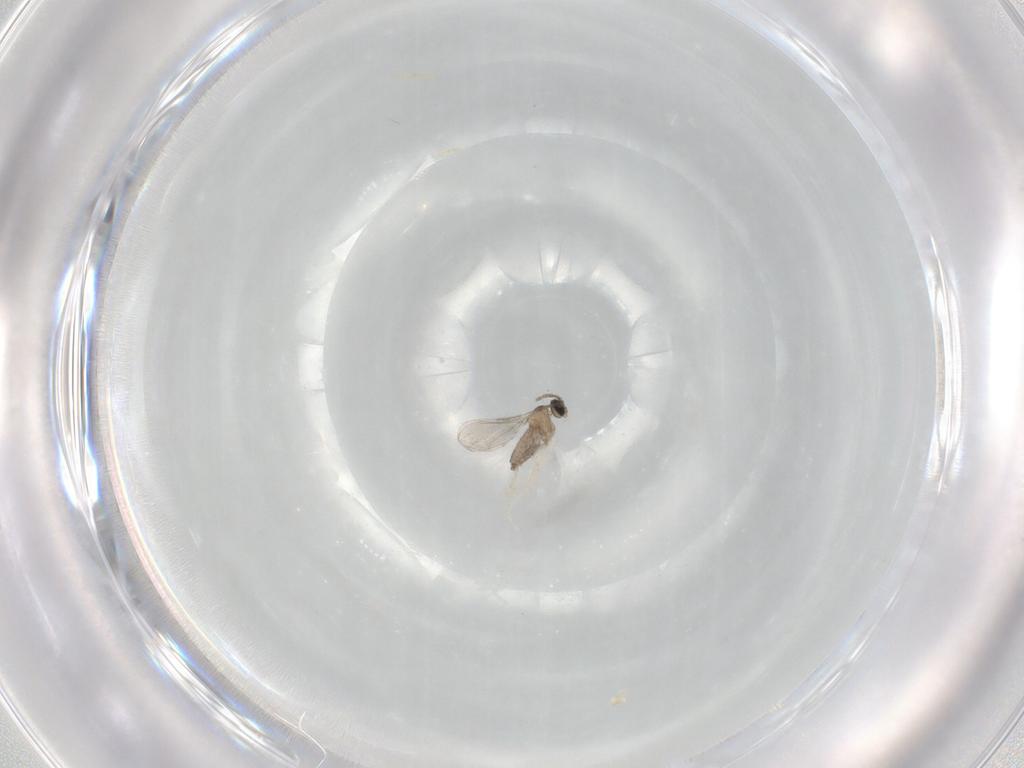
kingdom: Animalia
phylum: Arthropoda
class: Insecta
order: Diptera
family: Chironomidae
